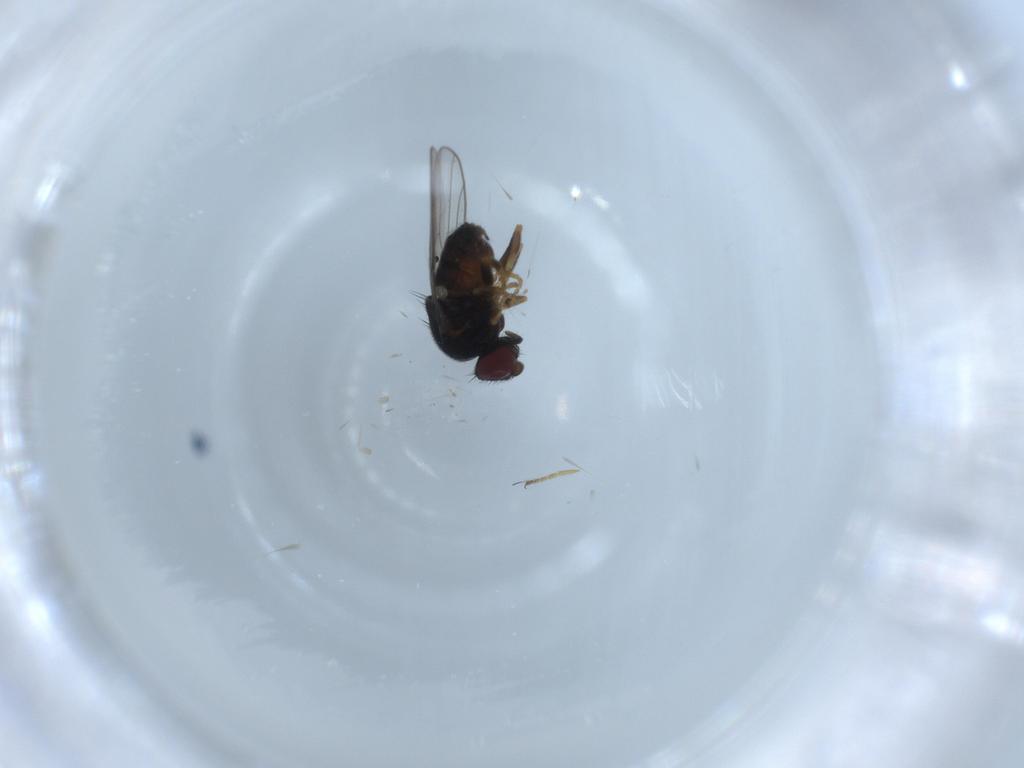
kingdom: Animalia
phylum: Arthropoda
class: Insecta
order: Diptera
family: Chloropidae
